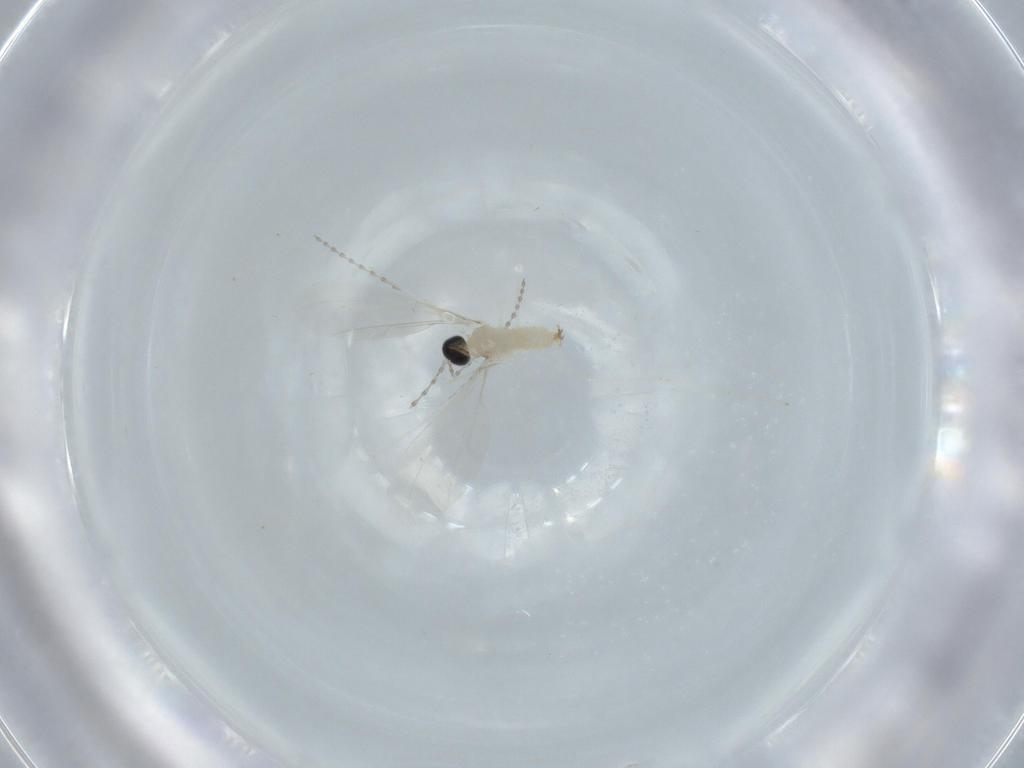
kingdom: Animalia
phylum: Arthropoda
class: Insecta
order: Diptera
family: Cecidomyiidae
